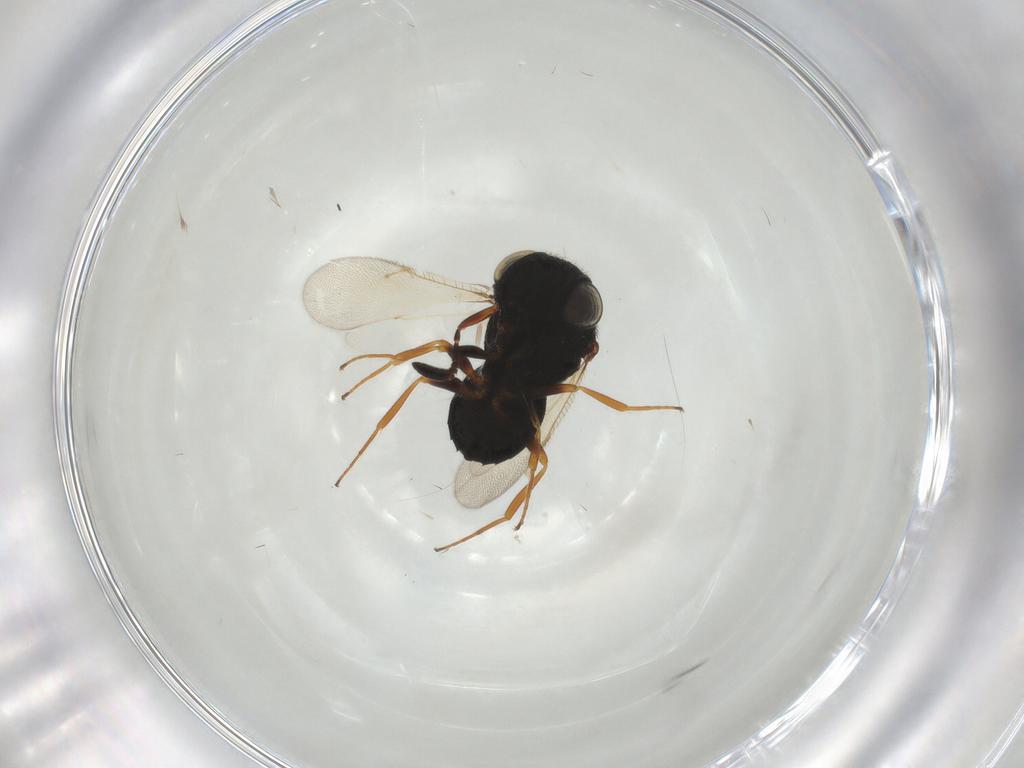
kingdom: Animalia
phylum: Arthropoda
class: Insecta
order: Hymenoptera
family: Scelionidae
